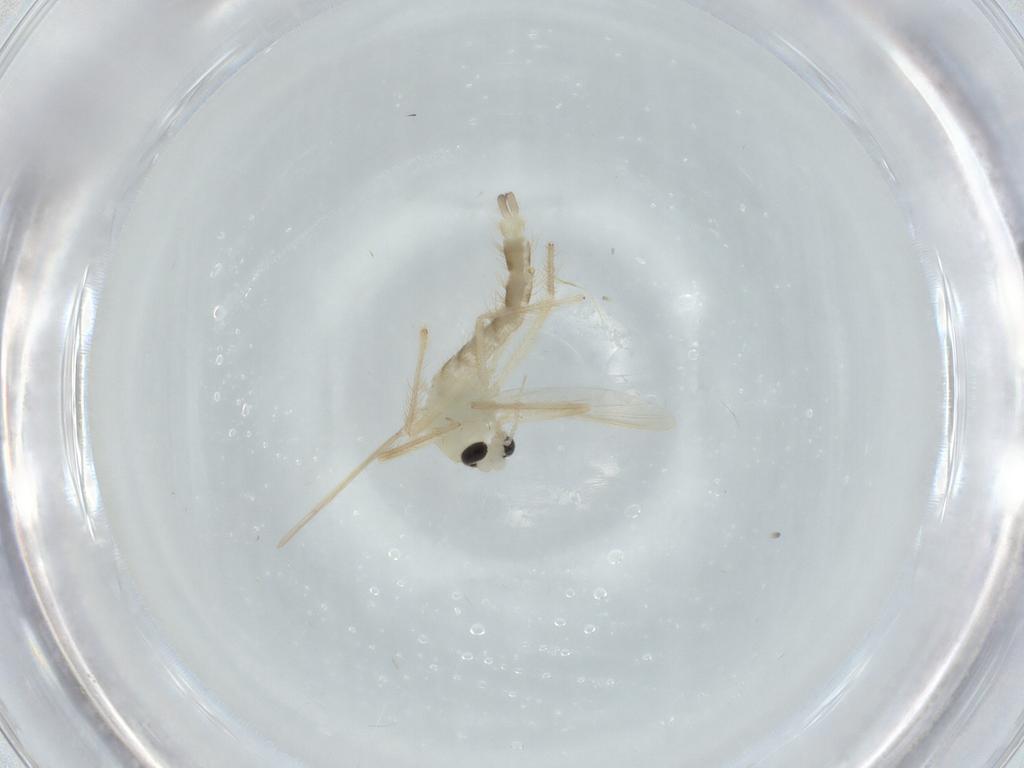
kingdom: Animalia
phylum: Arthropoda
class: Insecta
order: Diptera
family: Chironomidae
